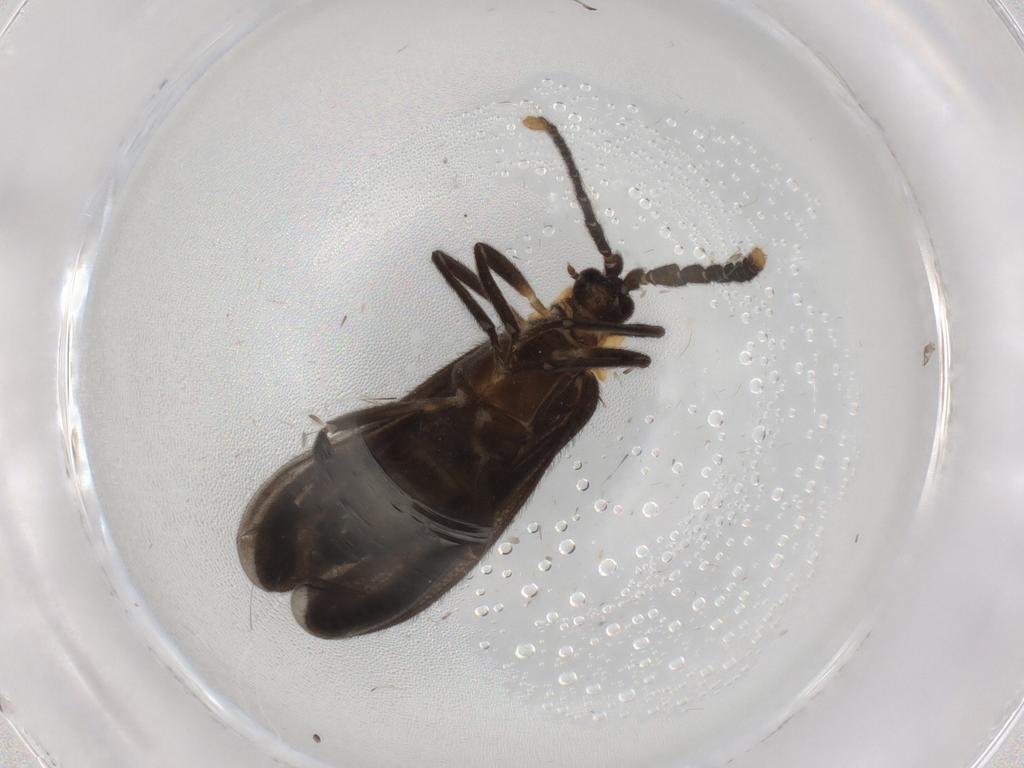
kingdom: Animalia
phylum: Arthropoda
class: Insecta
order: Coleoptera
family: Lycidae
